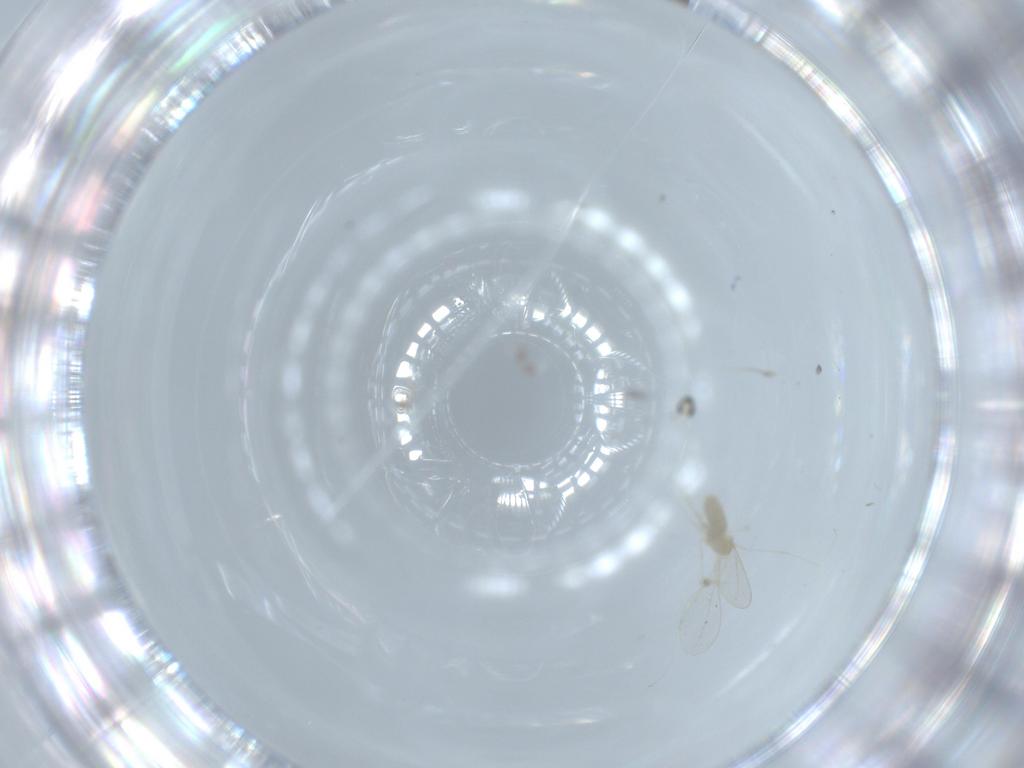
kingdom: Animalia
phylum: Arthropoda
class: Insecta
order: Diptera
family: Cecidomyiidae
